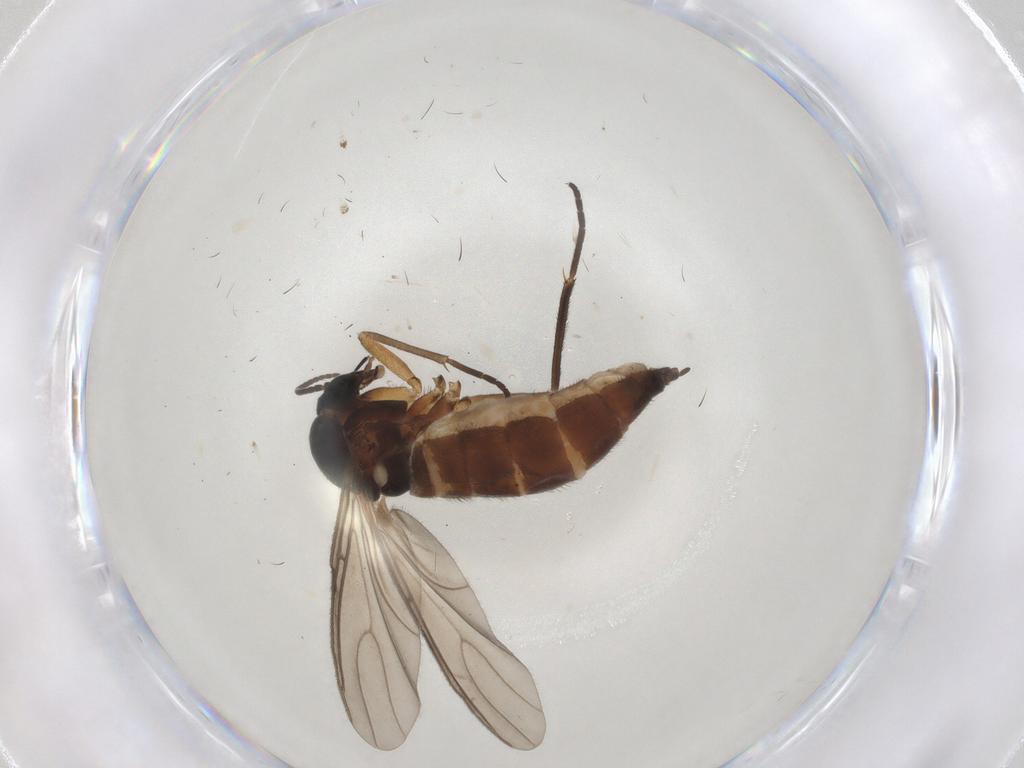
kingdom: Animalia
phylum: Arthropoda
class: Insecta
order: Diptera
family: Sciaridae
